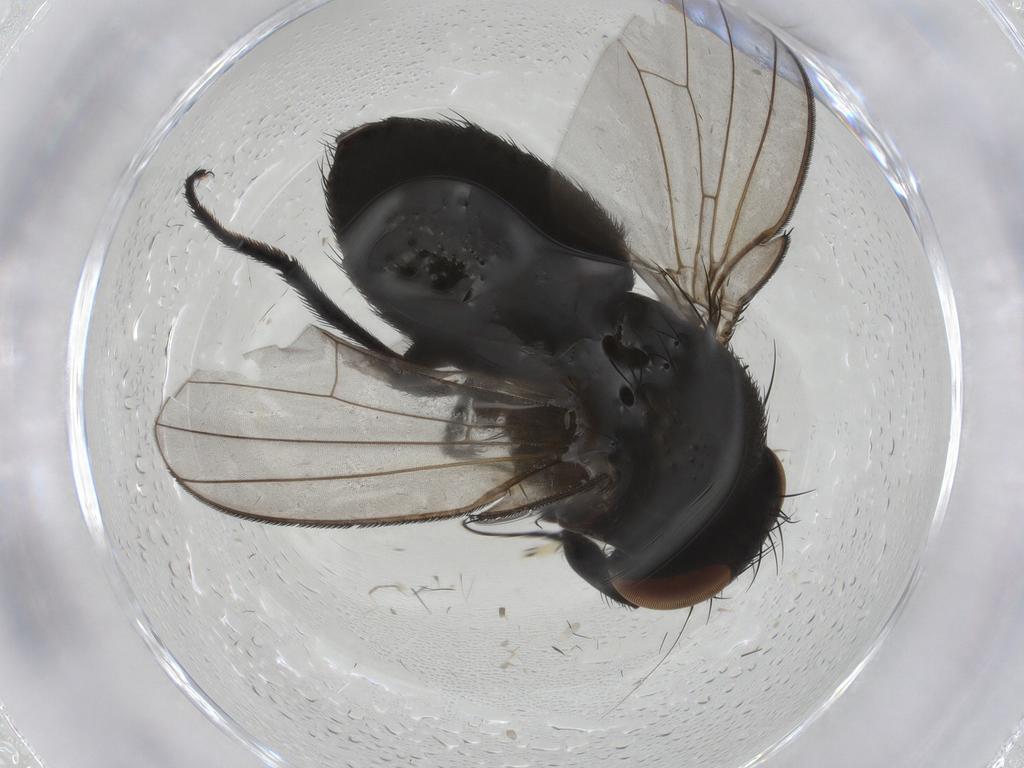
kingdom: Animalia
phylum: Arthropoda
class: Insecta
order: Diptera
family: Milichiidae
